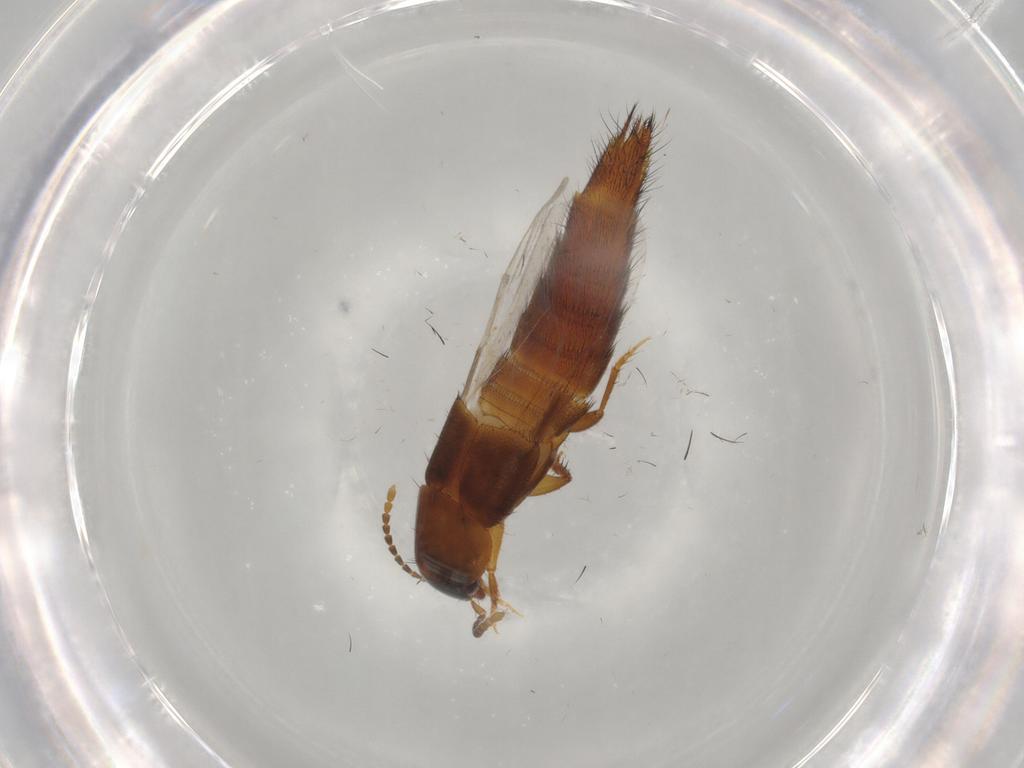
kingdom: Animalia
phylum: Arthropoda
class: Insecta
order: Coleoptera
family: Staphylinidae
